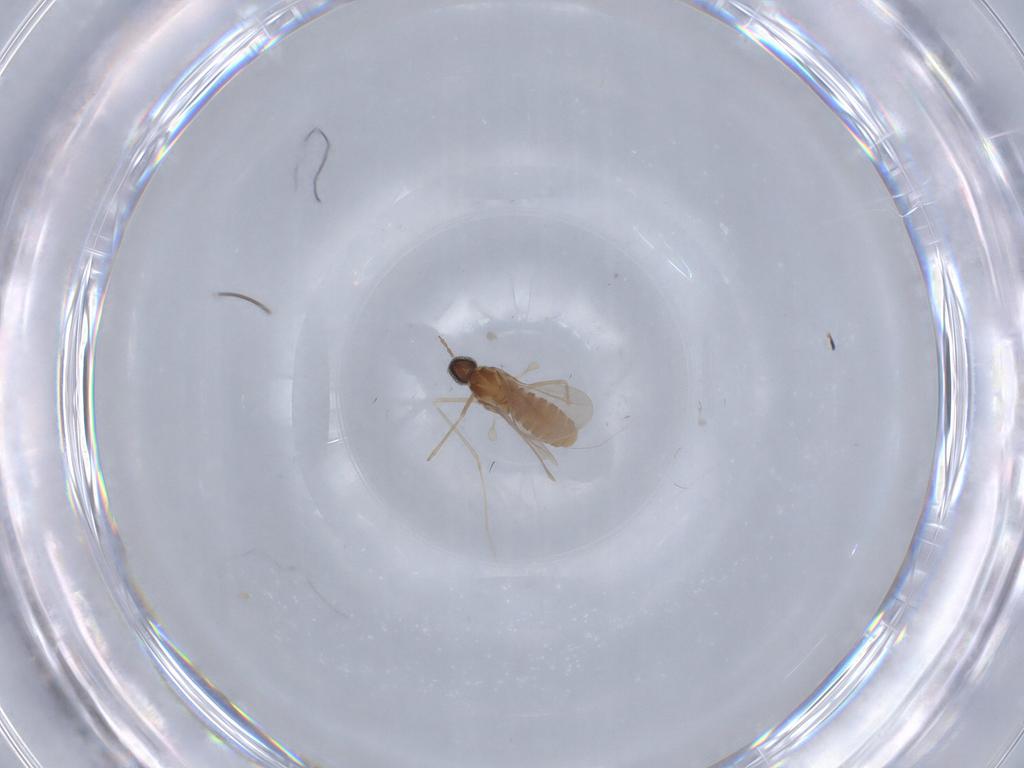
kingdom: Animalia
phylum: Arthropoda
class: Insecta
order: Diptera
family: Cecidomyiidae
